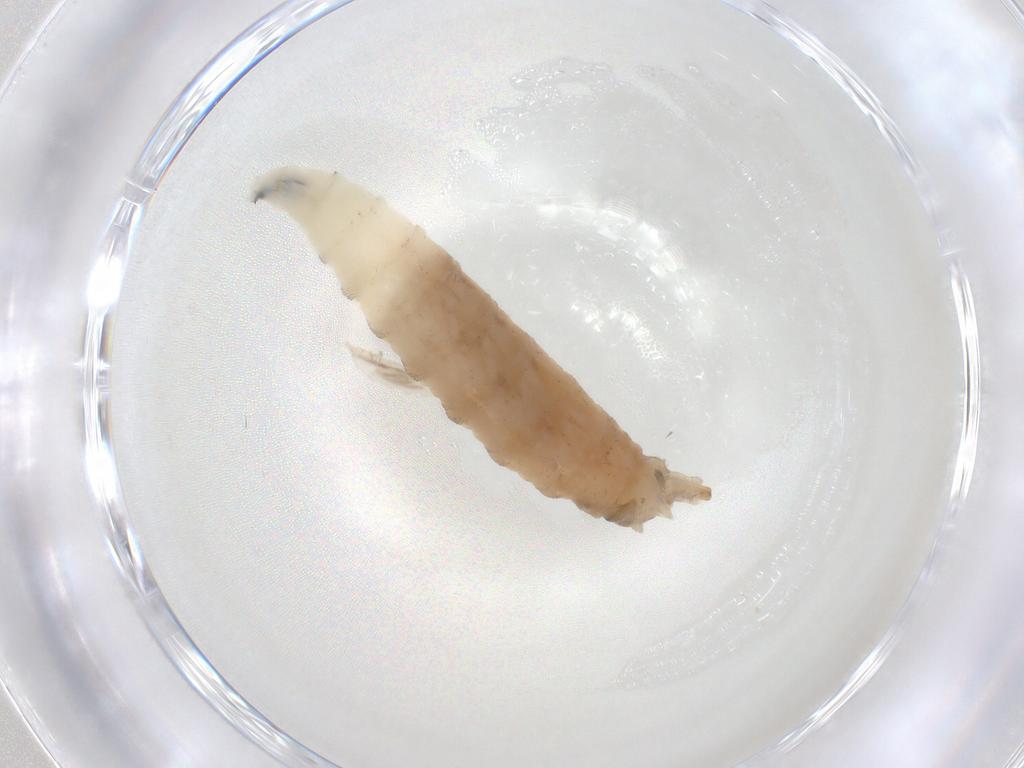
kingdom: Animalia
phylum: Arthropoda
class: Insecta
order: Diptera
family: Drosophilidae
